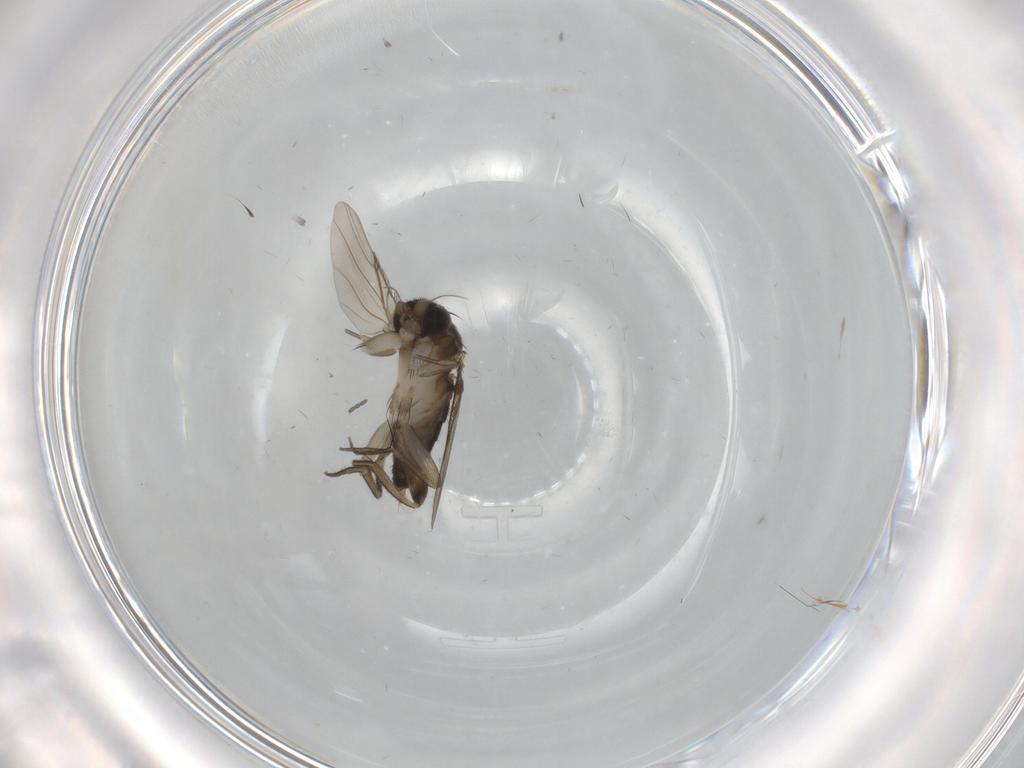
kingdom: Animalia
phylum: Arthropoda
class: Insecta
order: Diptera
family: Phoridae
